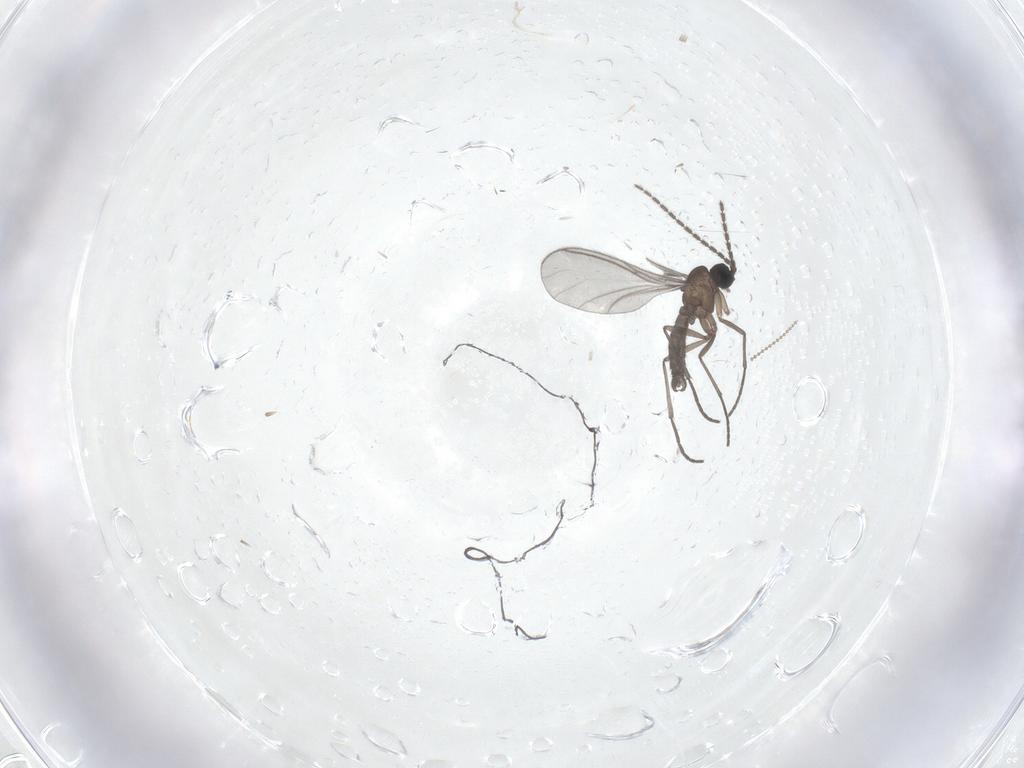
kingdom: Animalia
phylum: Arthropoda
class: Insecta
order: Diptera
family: Sciaridae
